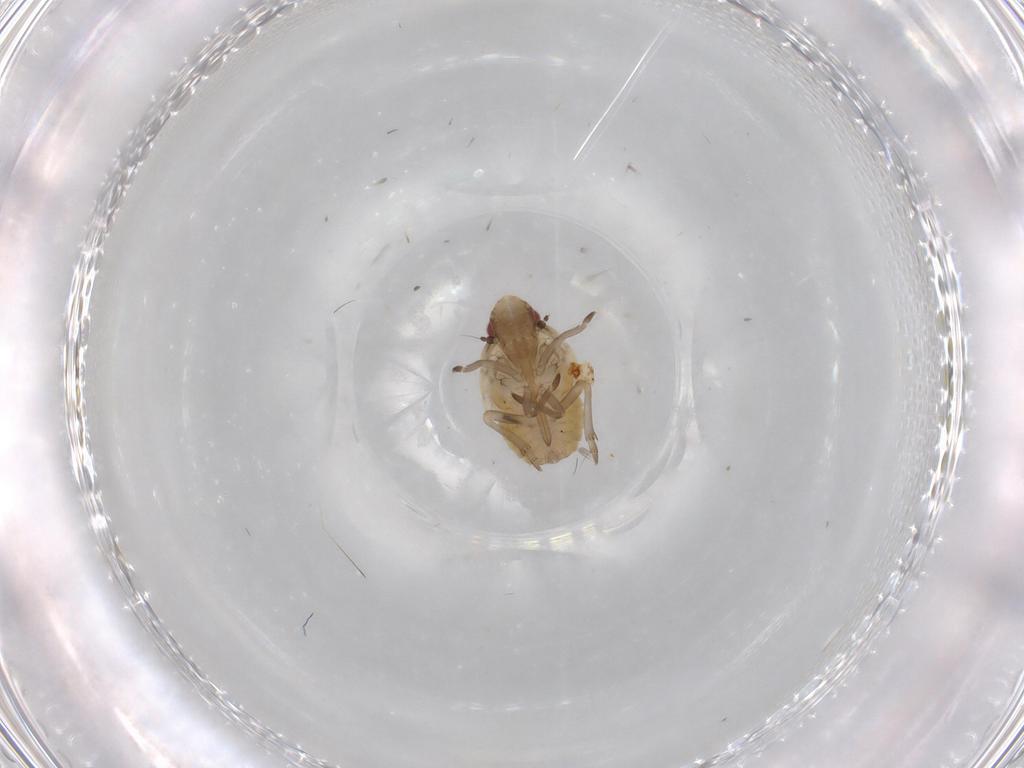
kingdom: Animalia
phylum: Arthropoda
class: Insecta
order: Hemiptera
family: Flatidae
